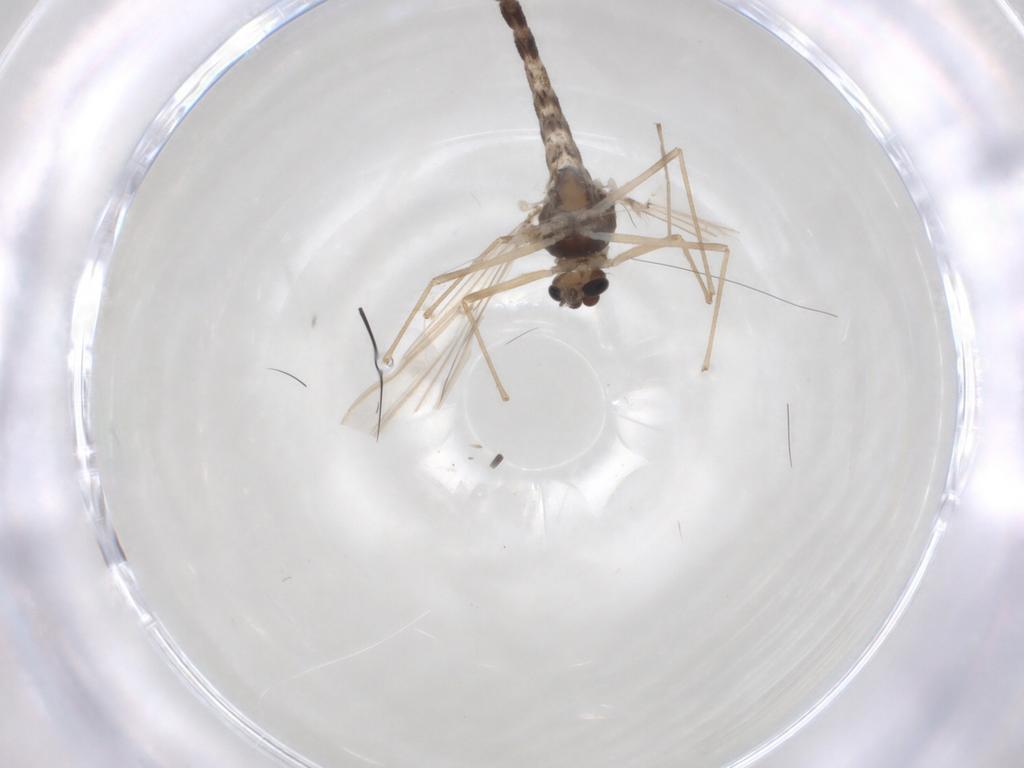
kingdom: Animalia
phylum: Arthropoda
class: Insecta
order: Diptera
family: Chironomidae
